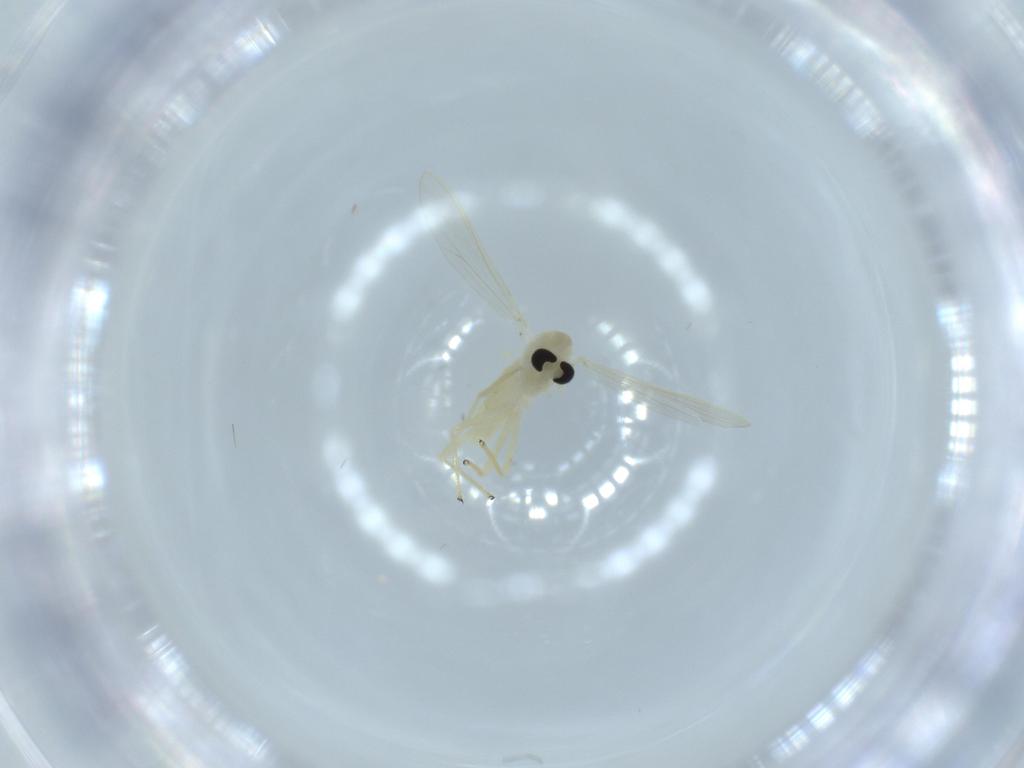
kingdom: Animalia
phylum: Arthropoda
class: Insecta
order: Diptera
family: Chironomidae
